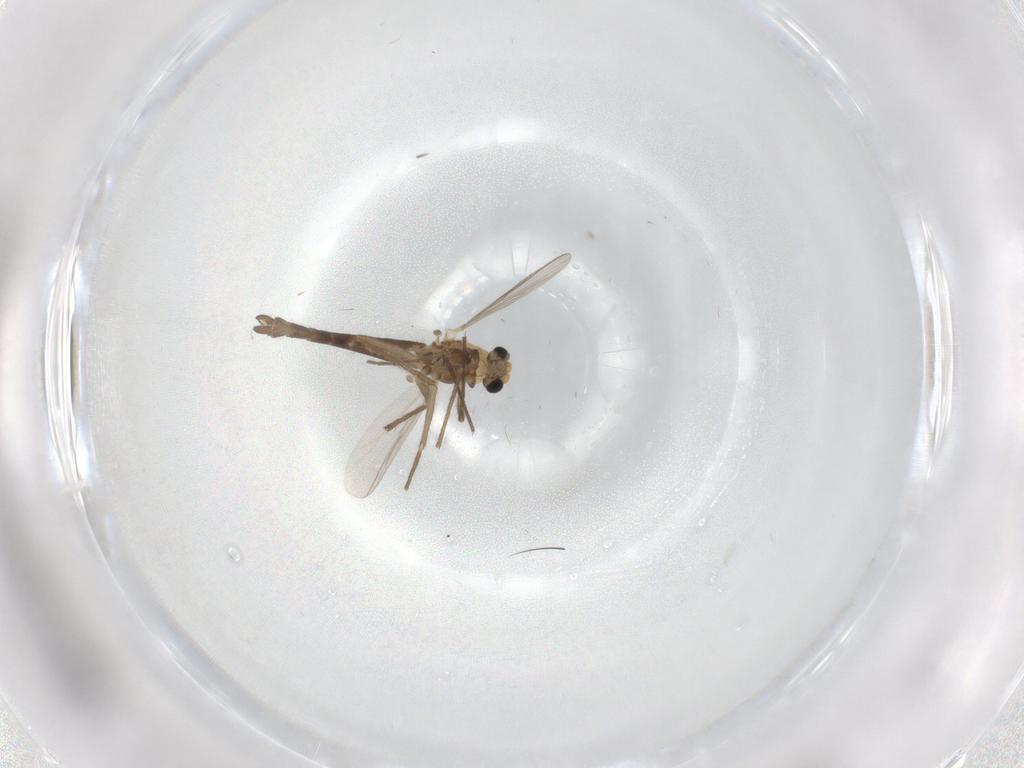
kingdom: Animalia
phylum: Arthropoda
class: Insecta
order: Diptera
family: Chironomidae
